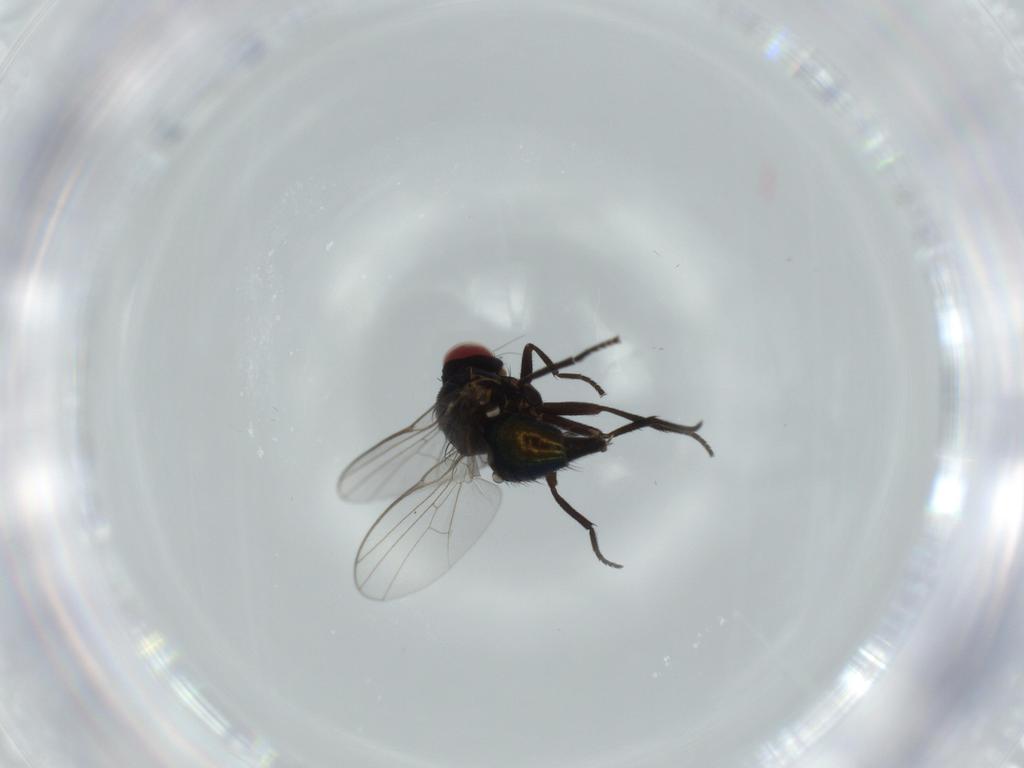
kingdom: Animalia
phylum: Arthropoda
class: Insecta
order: Diptera
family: Agromyzidae
